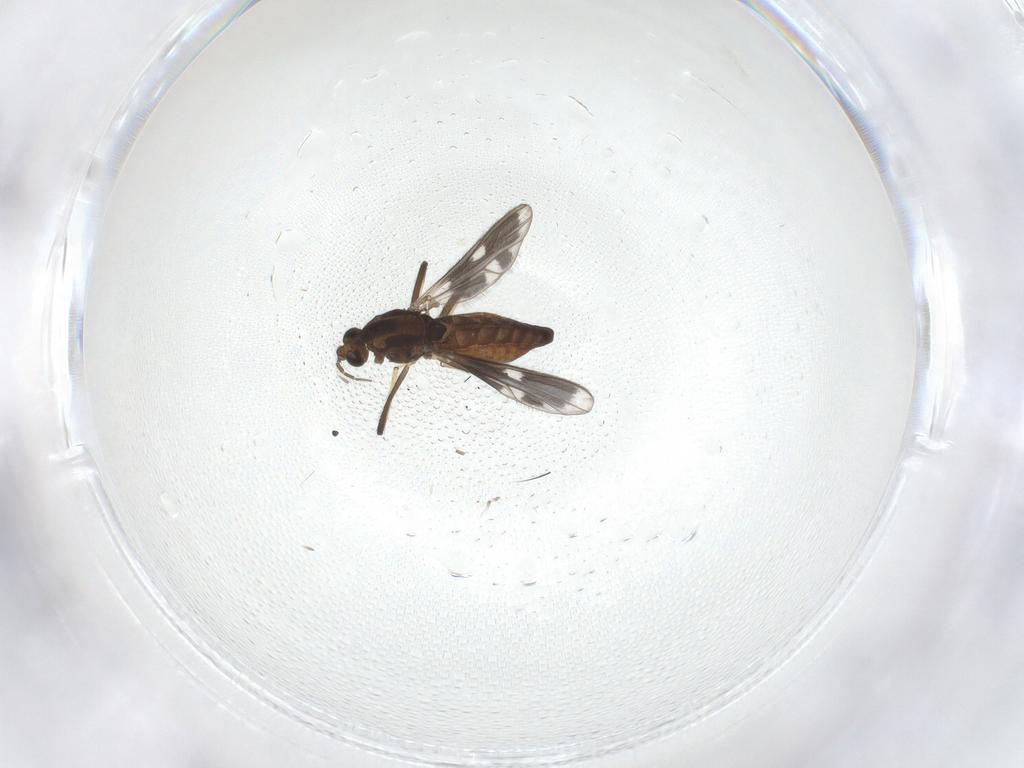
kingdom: Animalia
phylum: Arthropoda
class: Insecta
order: Diptera
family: Chironomidae
